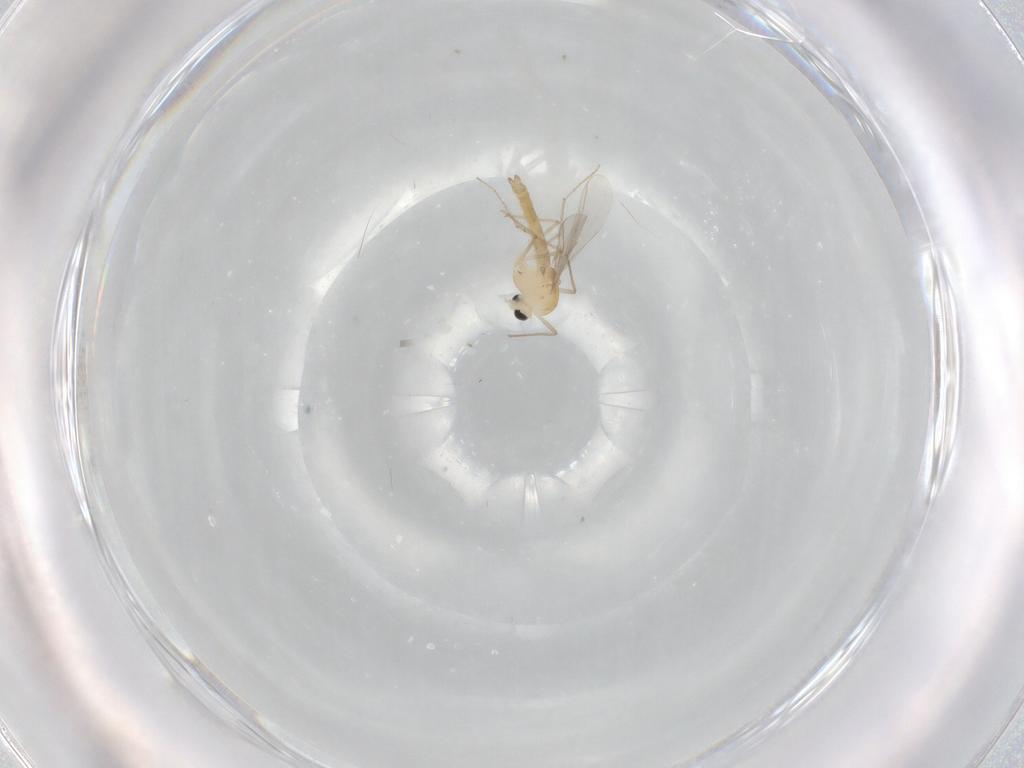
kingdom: Animalia
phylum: Arthropoda
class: Insecta
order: Diptera
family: Chironomidae
